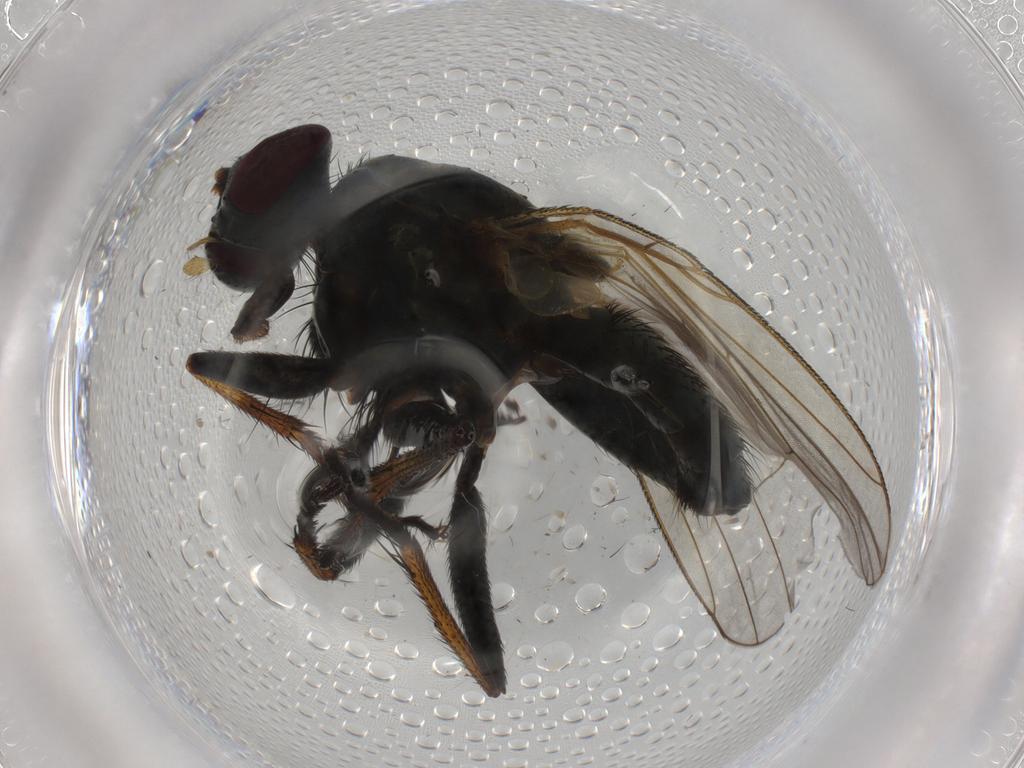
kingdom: Animalia
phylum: Arthropoda
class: Insecta
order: Diptera
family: Sciaridae
